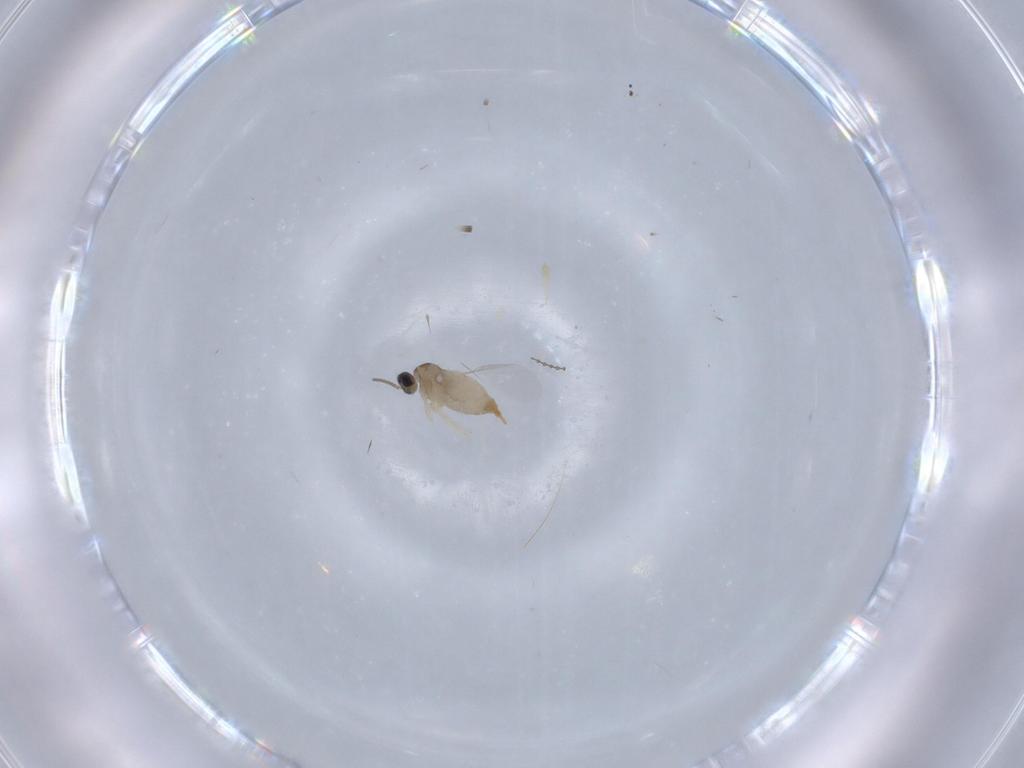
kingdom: Animalia
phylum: Arthropoda
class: Insecta
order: Diptera
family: Cecidomyiidae
